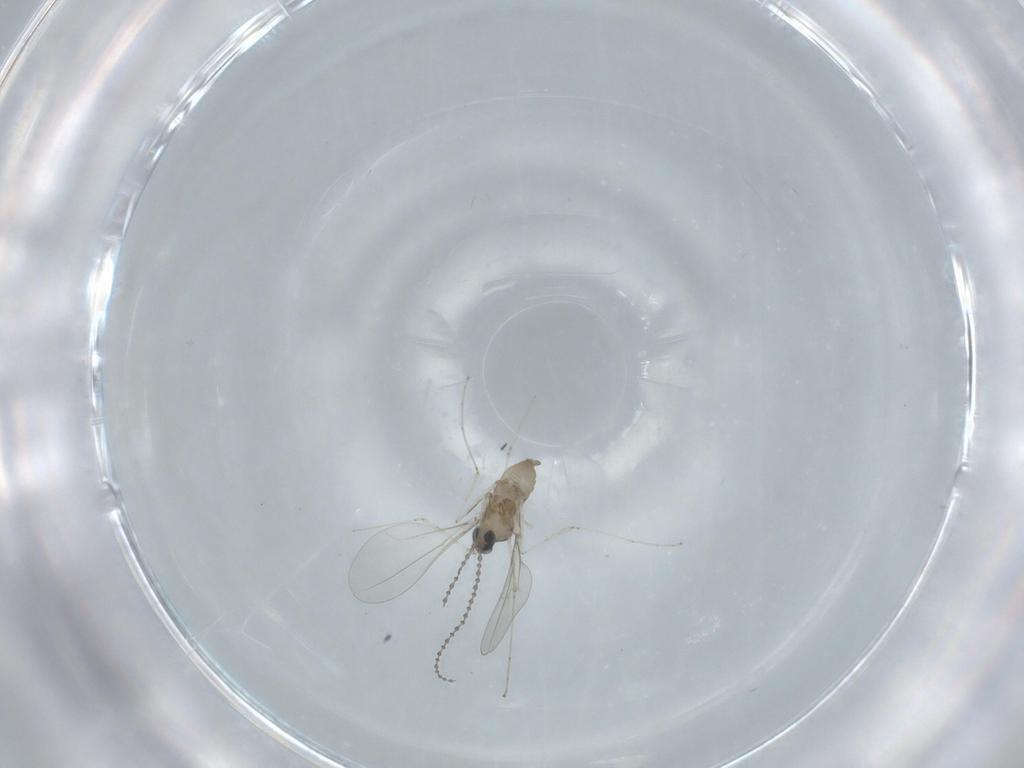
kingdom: Animalia
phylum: Arthropoda
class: Insecta
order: Diptera
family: Cecidomyiidae
